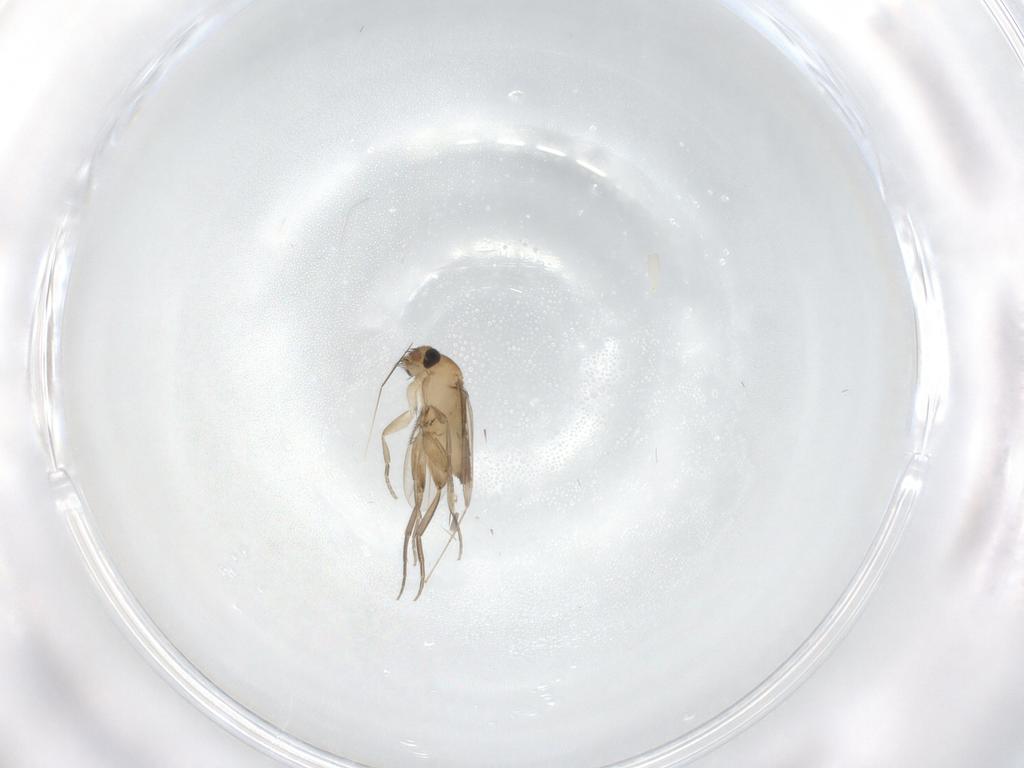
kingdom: Animalia
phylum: Arthropoda
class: Insecta
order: Diptera
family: Phoridae
